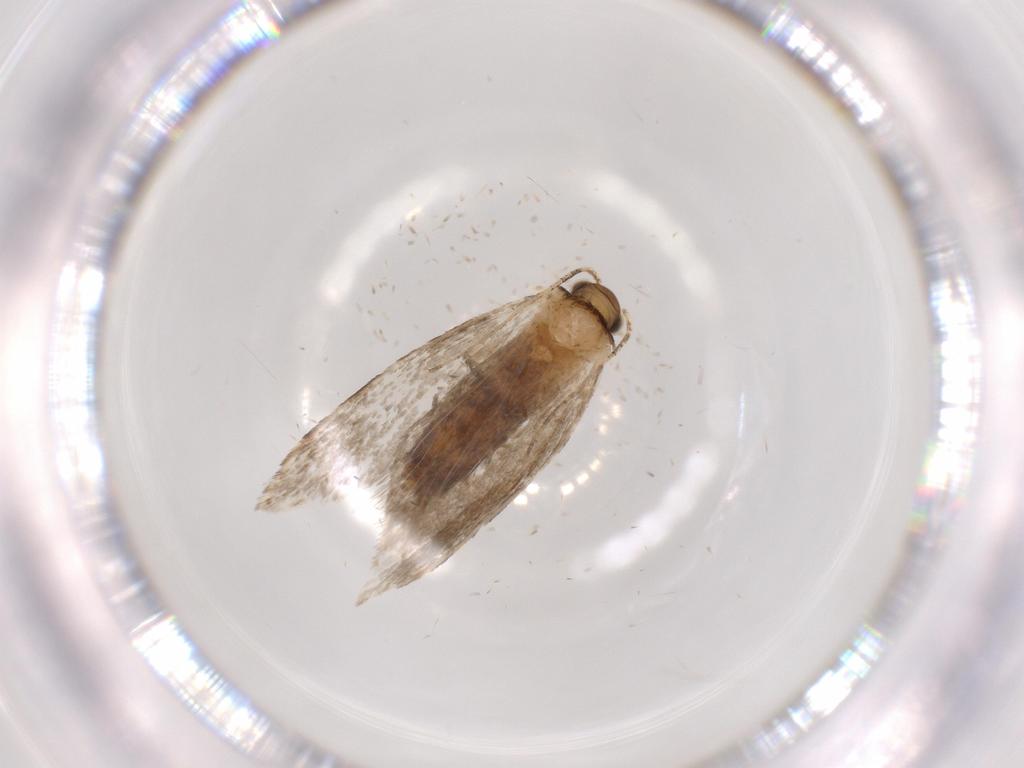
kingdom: Animalia
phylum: Arthropoda
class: Insecta
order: Lepidoptera
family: Tineidae
